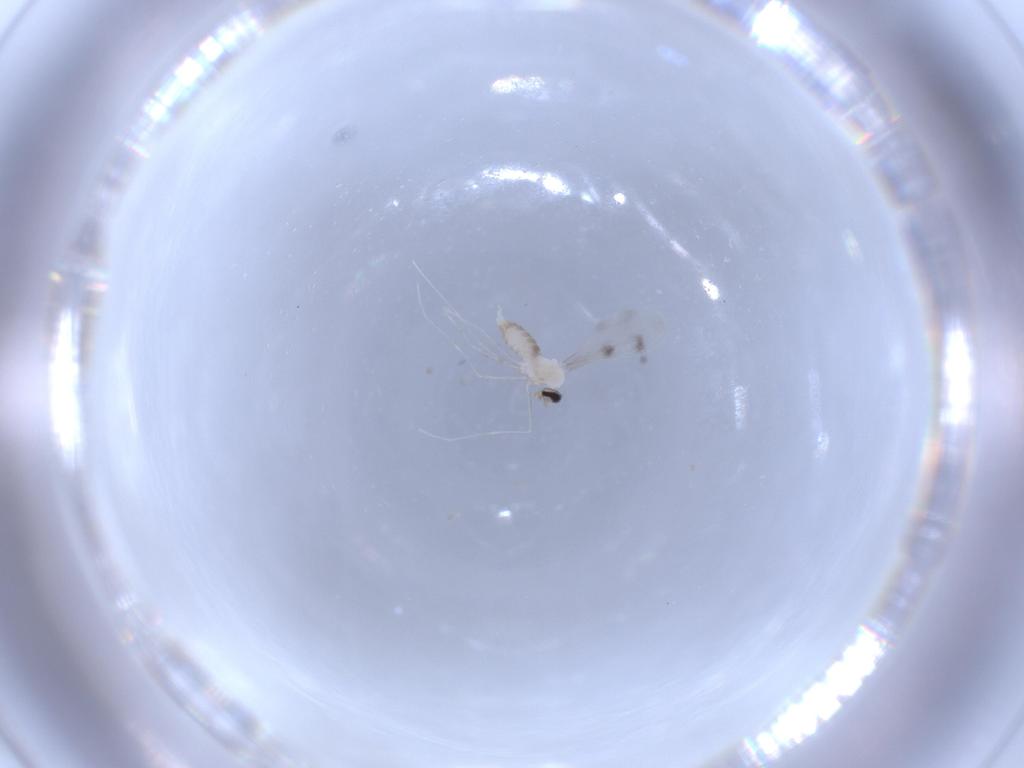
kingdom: Animalia
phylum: Arthropoda
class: Insecta
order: Diptera
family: Cecidomyiidae
